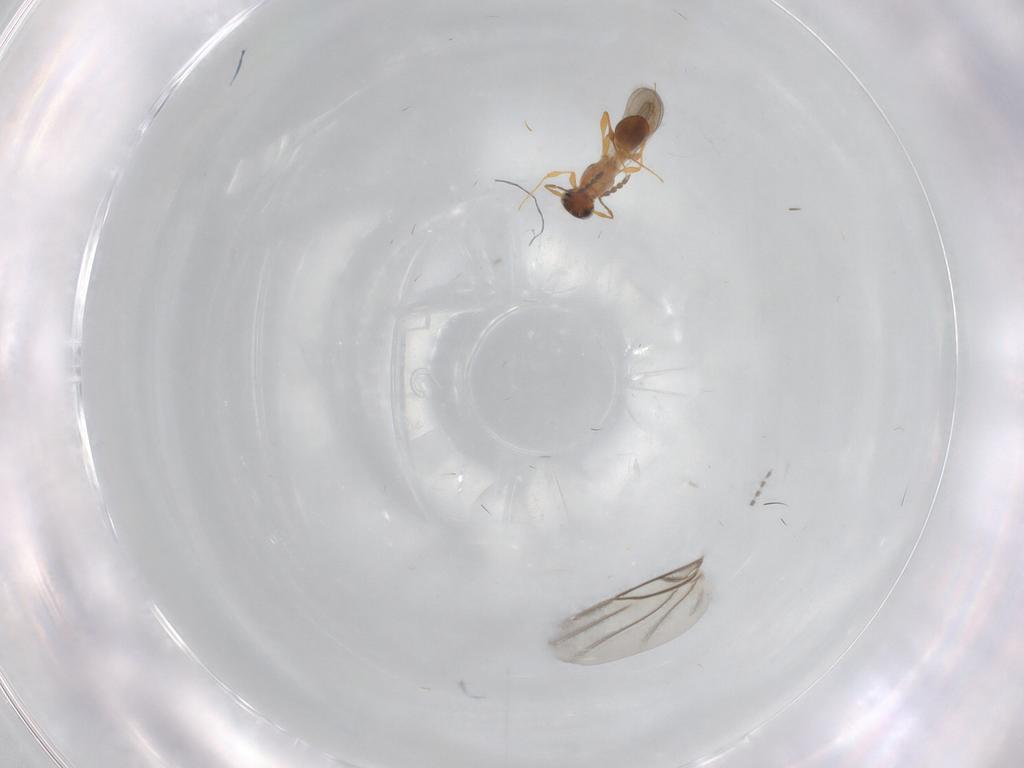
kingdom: Animalia
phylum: Arthropoda
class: Insecta
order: Hymenoptera
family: Platygastridae
